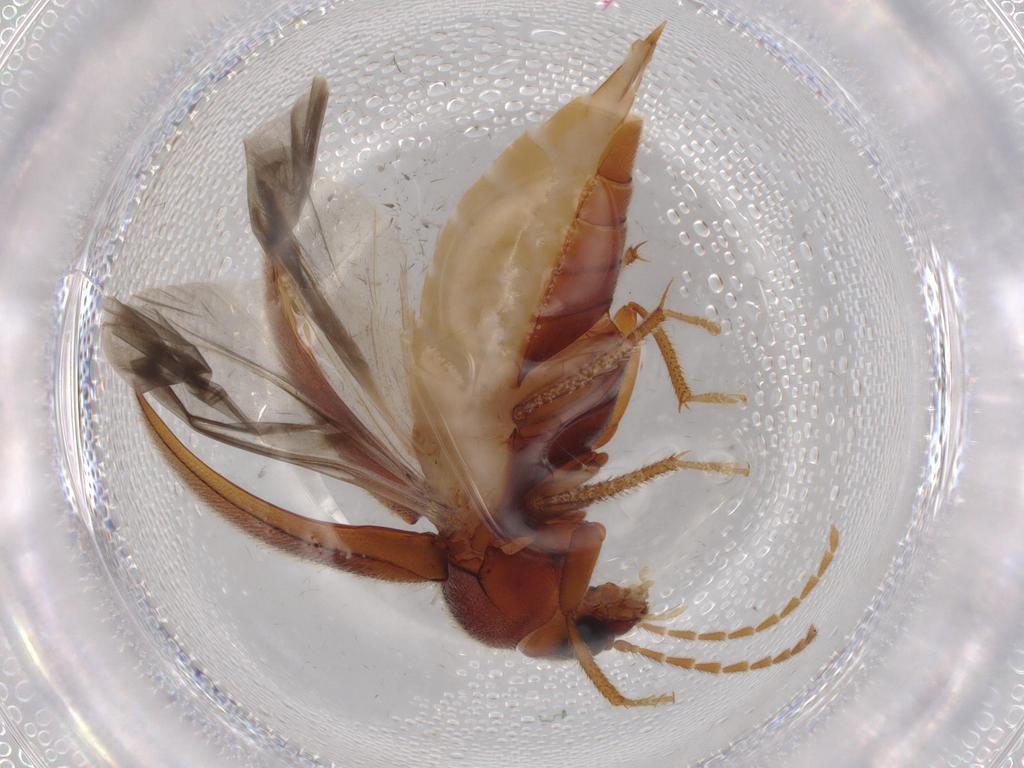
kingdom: Animalia
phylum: Arthropoda
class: Insecta
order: Coleoptera
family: Ptilodactylidae
